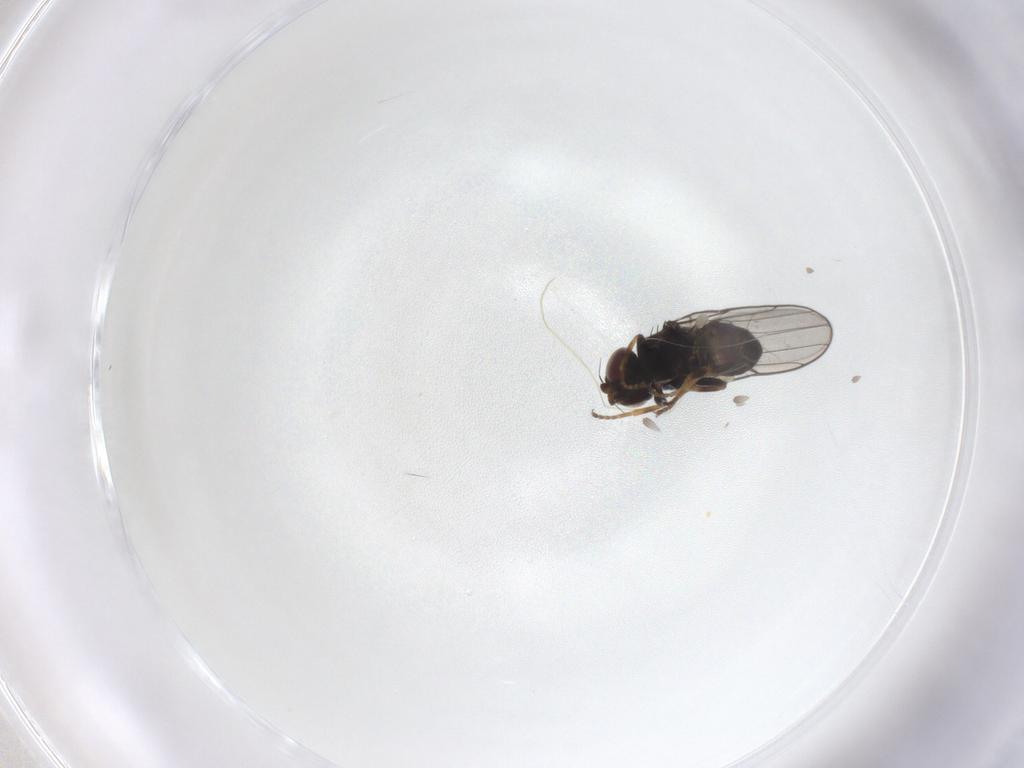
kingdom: Animalia
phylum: Arthropoda
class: Insecta
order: Diptera
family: Chloropidae
